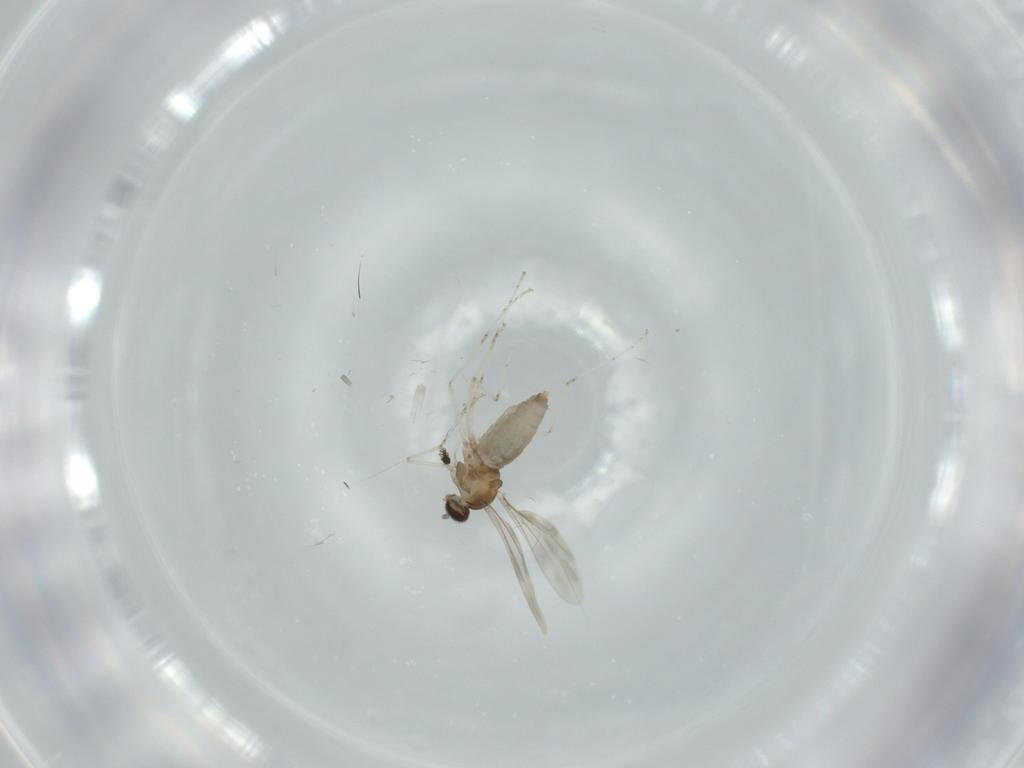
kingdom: Animalia
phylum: Arthropoda
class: Insecta
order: Diptera
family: Cecidomyiidae
